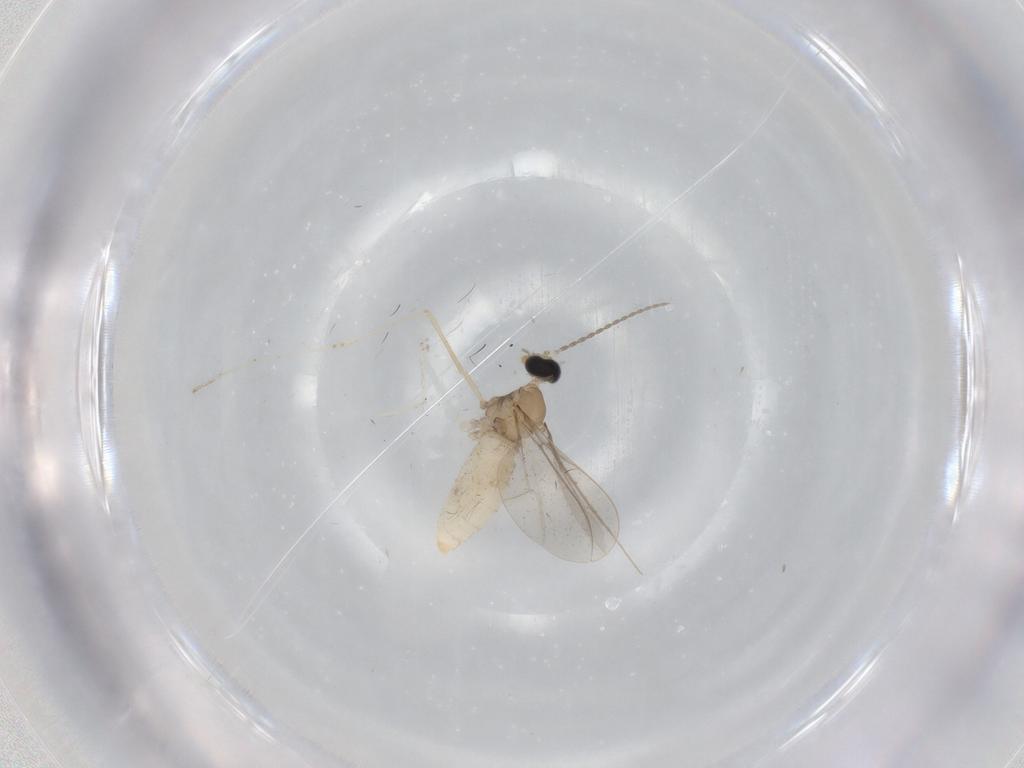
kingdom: Animalia
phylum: Arthropoda
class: Insecta
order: Diptera
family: Cecidomyiidae
